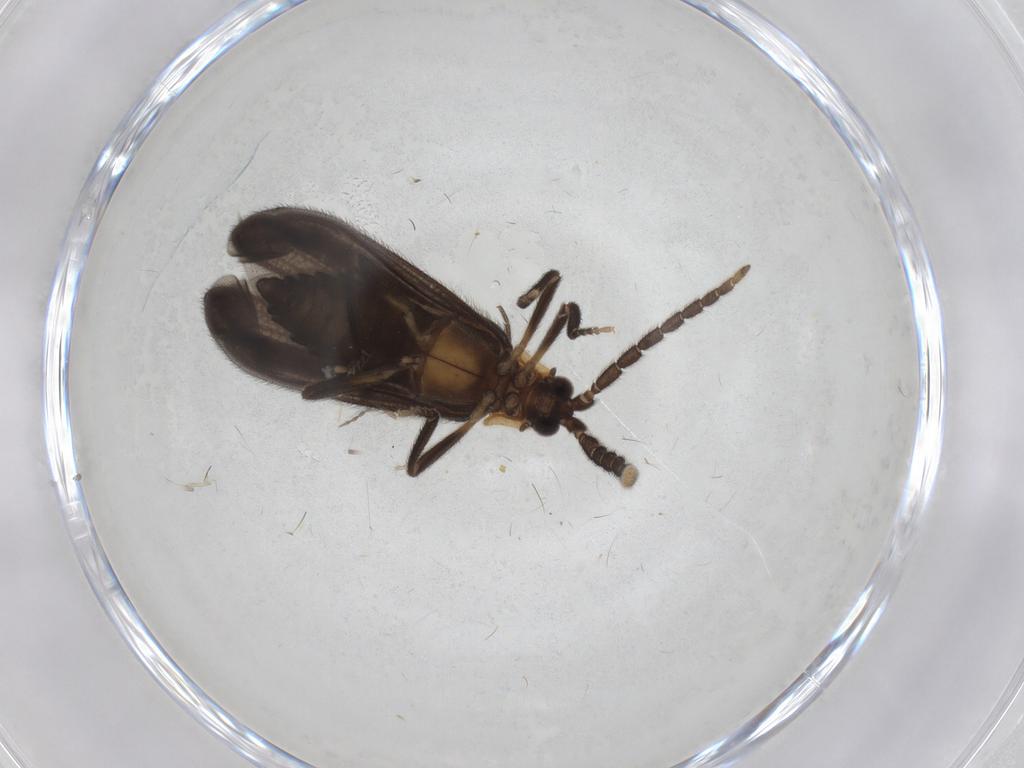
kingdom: Animalia
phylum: Arthropoda
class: Insecta
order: Coleoptera
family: Lycidae
